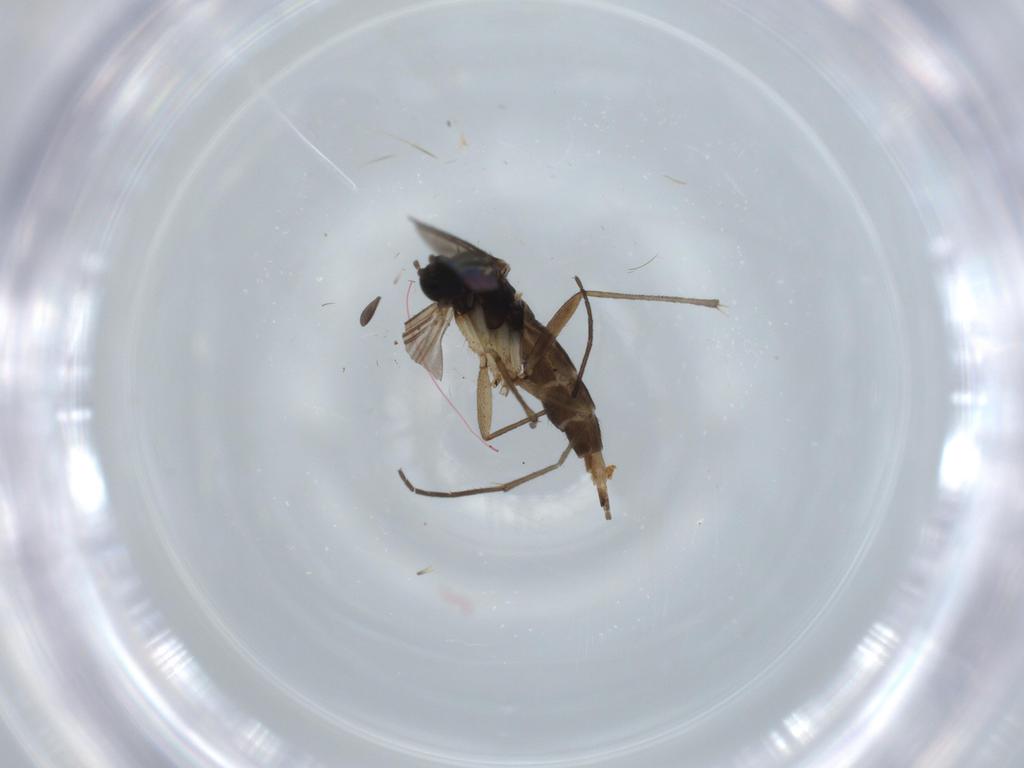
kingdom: Animalia
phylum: Arthropoda
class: Insecta
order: Diptera
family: Sciaridae
